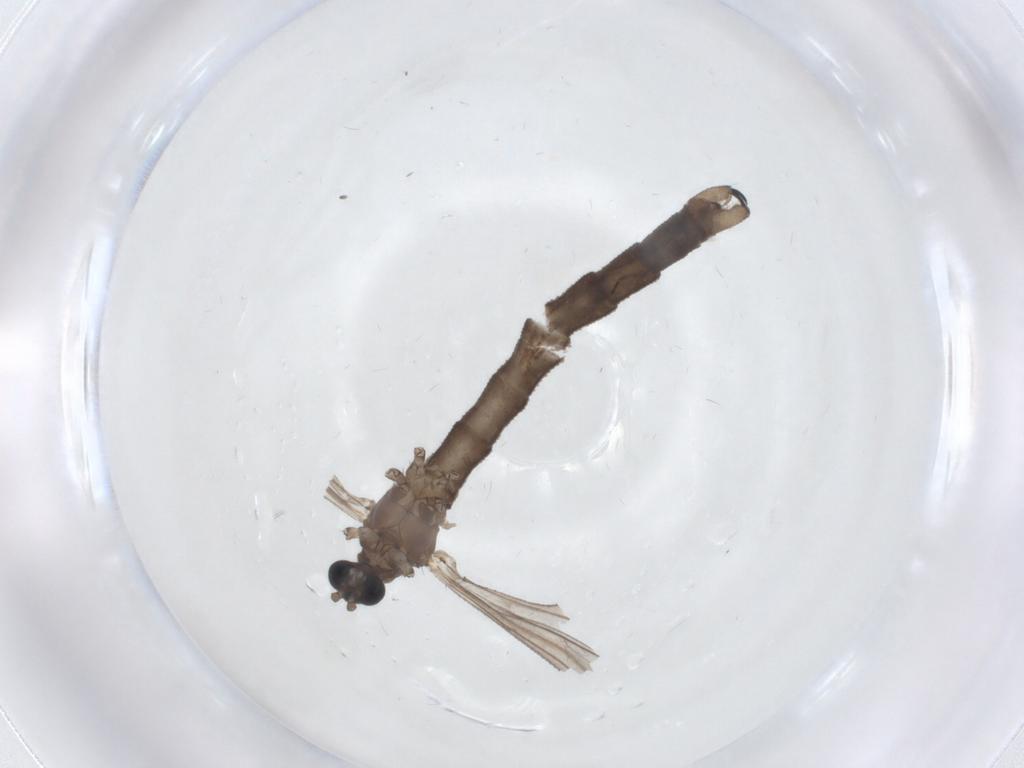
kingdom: Animalia
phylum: Arthropoda
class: Insecta
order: Diptera
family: Limoniidae
